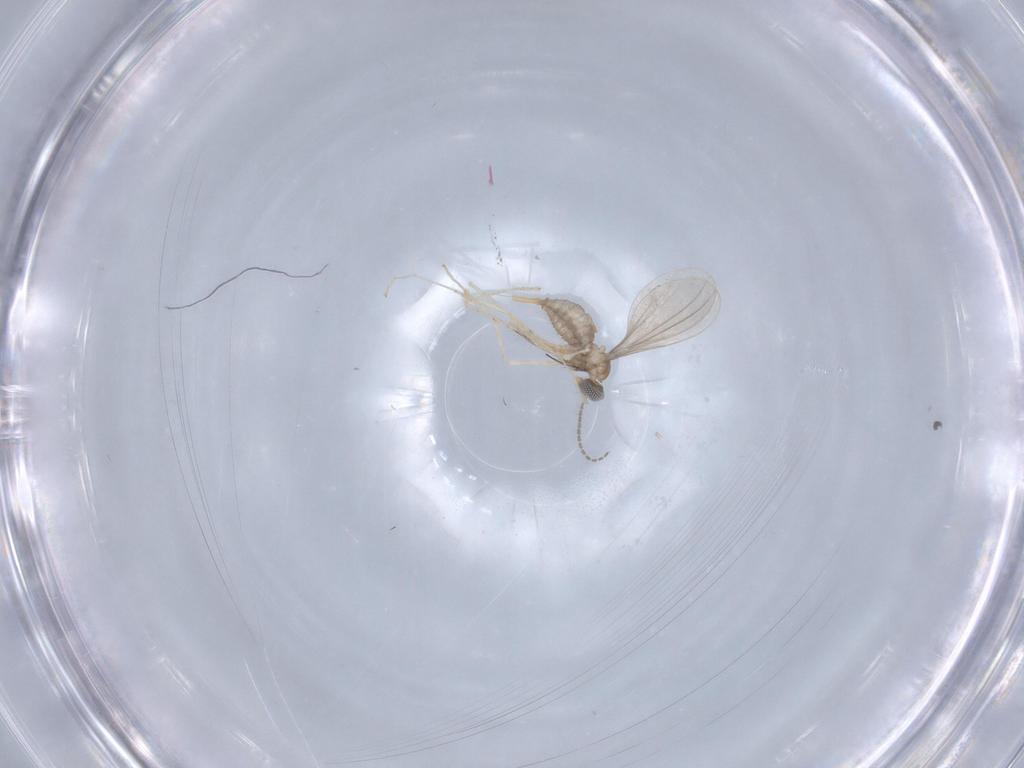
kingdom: Animalia
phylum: Arthropoda
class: Insecta
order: Diptera
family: Cecidomyiidae
